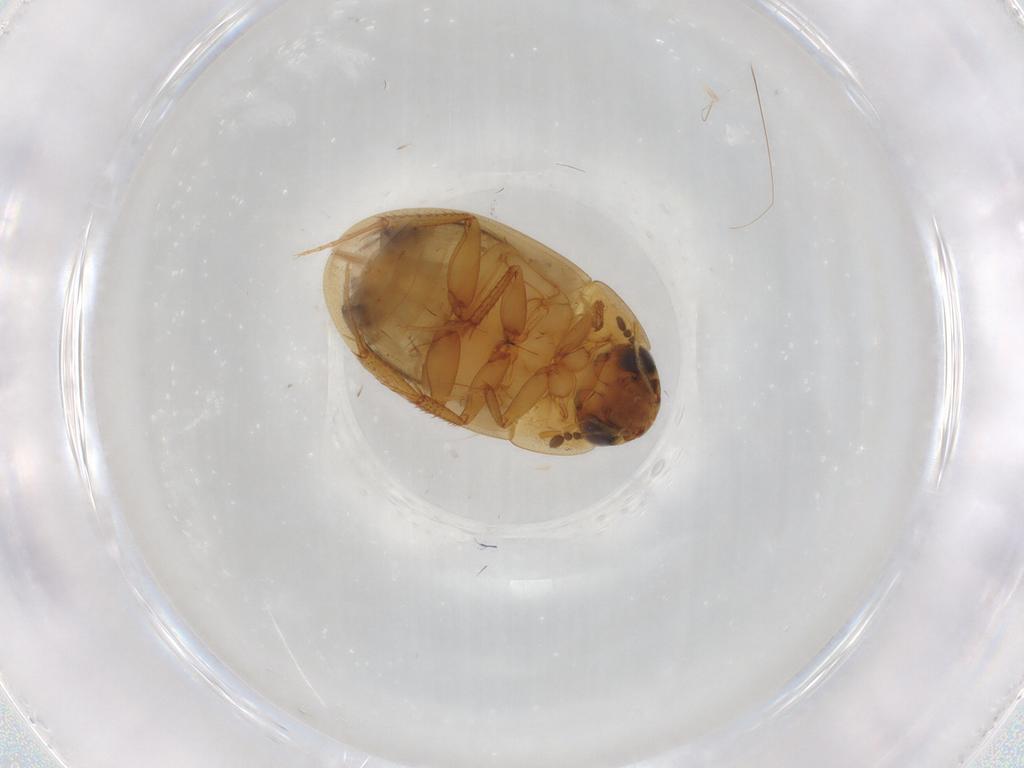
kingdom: Animalia
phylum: Arthropoda
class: Insecta
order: Coleoptera
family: Hydrophilidae
